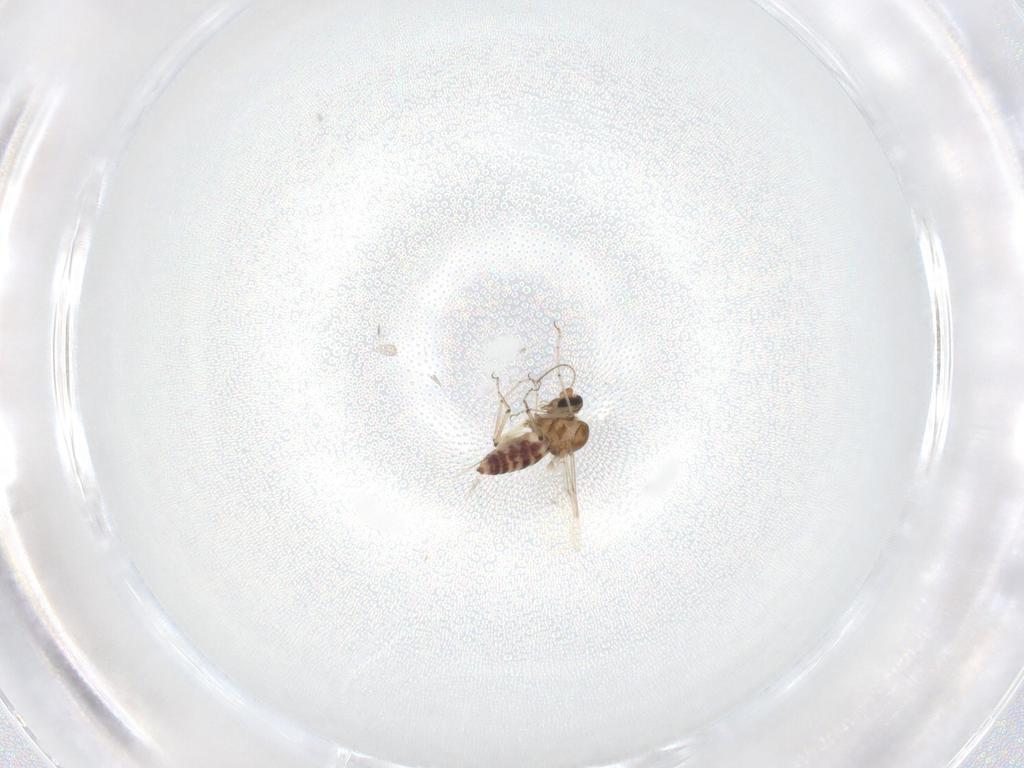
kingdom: Animalia
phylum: Arthropoda
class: Insecta
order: Diptera
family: Ceratopogonidae
